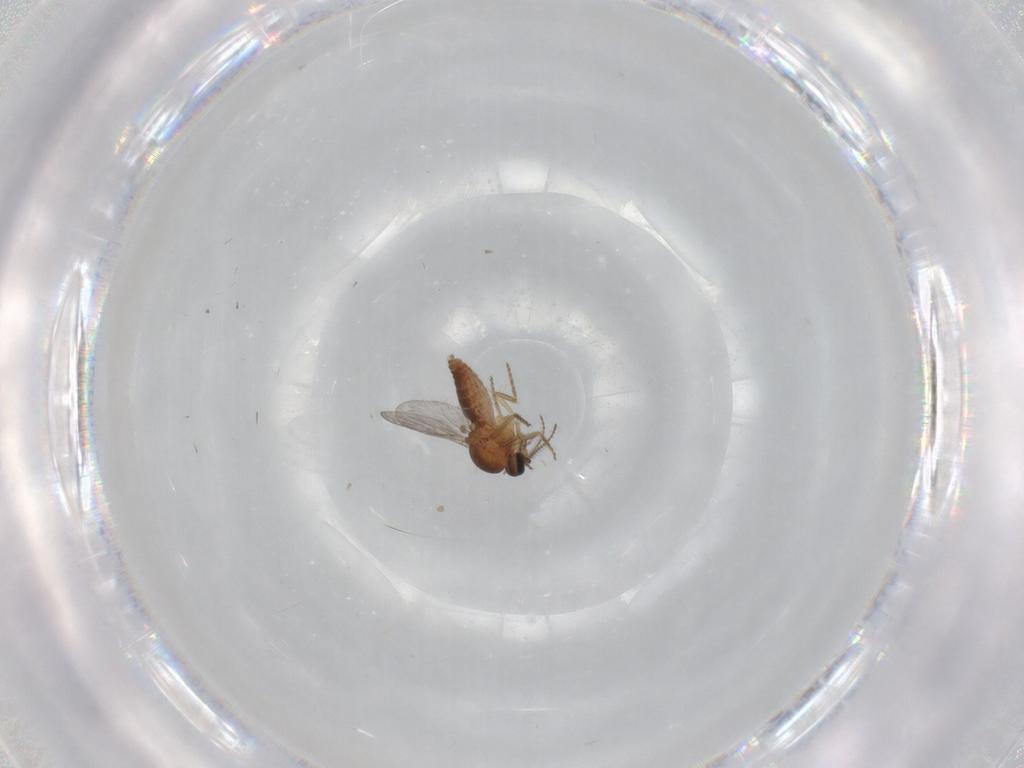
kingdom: Animalia
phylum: Arthropoda
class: Insecta
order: Diptera
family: Ceratopogonidae
